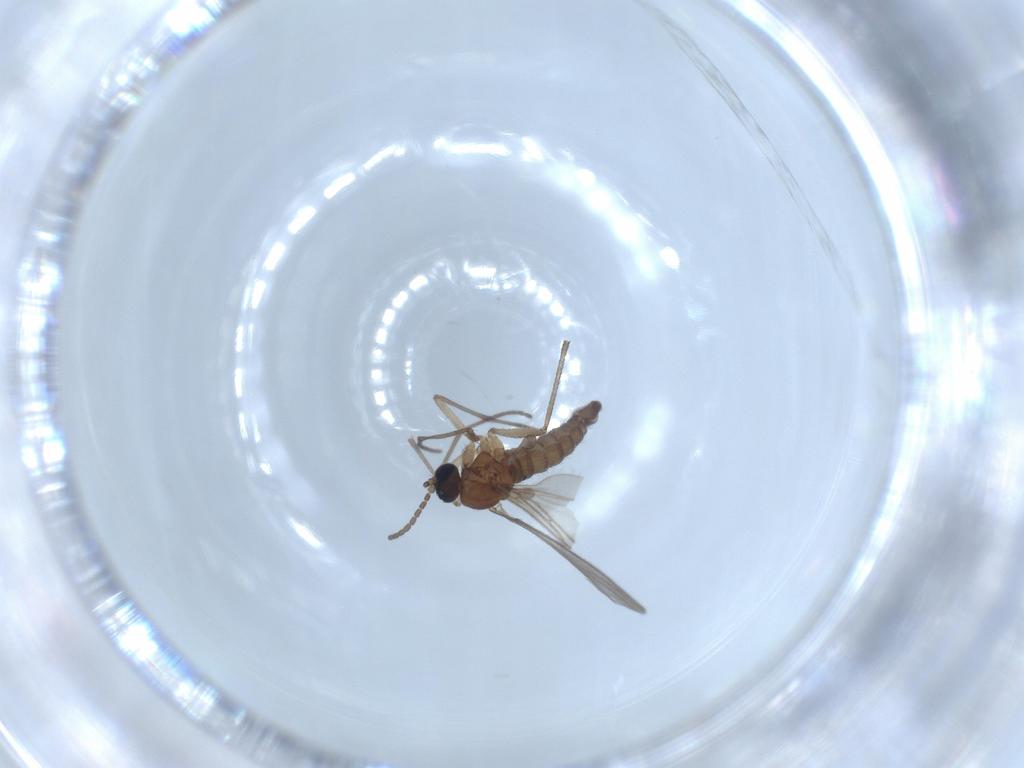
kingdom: Animalia
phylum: Arthropoda
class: Insecta
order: Diptera
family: Sciaridae
